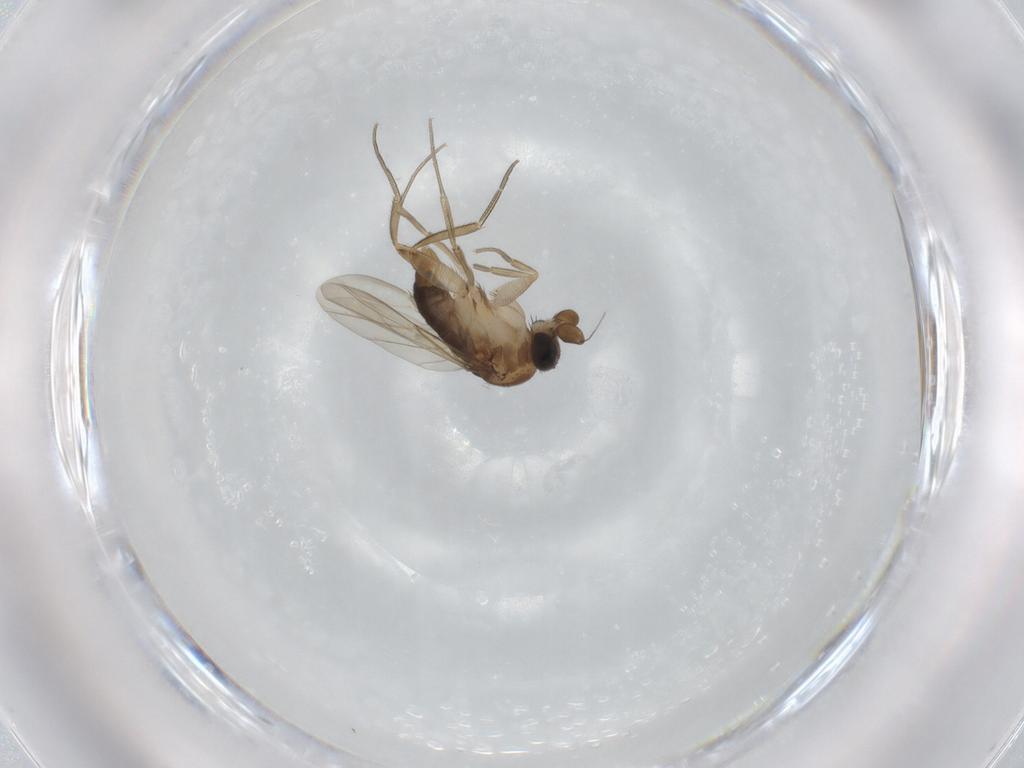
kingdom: Animalia
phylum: Arthropoda
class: Insecta
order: Diptera
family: Phoridae
